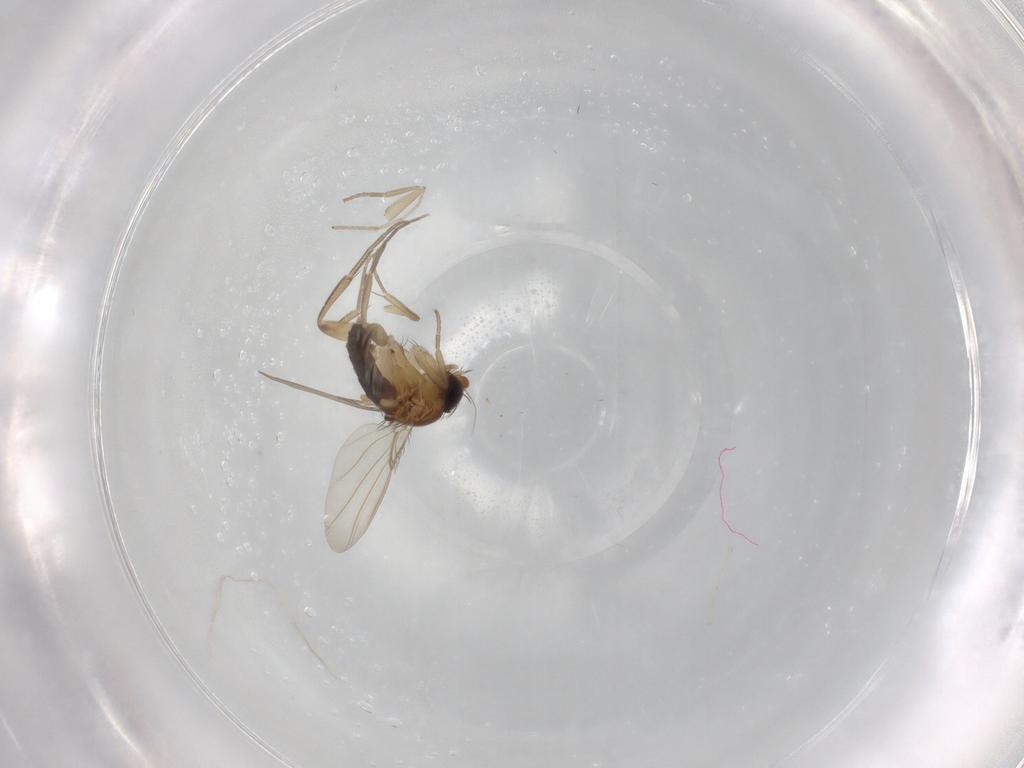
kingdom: Animalia
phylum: Arthropoda
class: Insecta
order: Diptera
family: Phoridae
